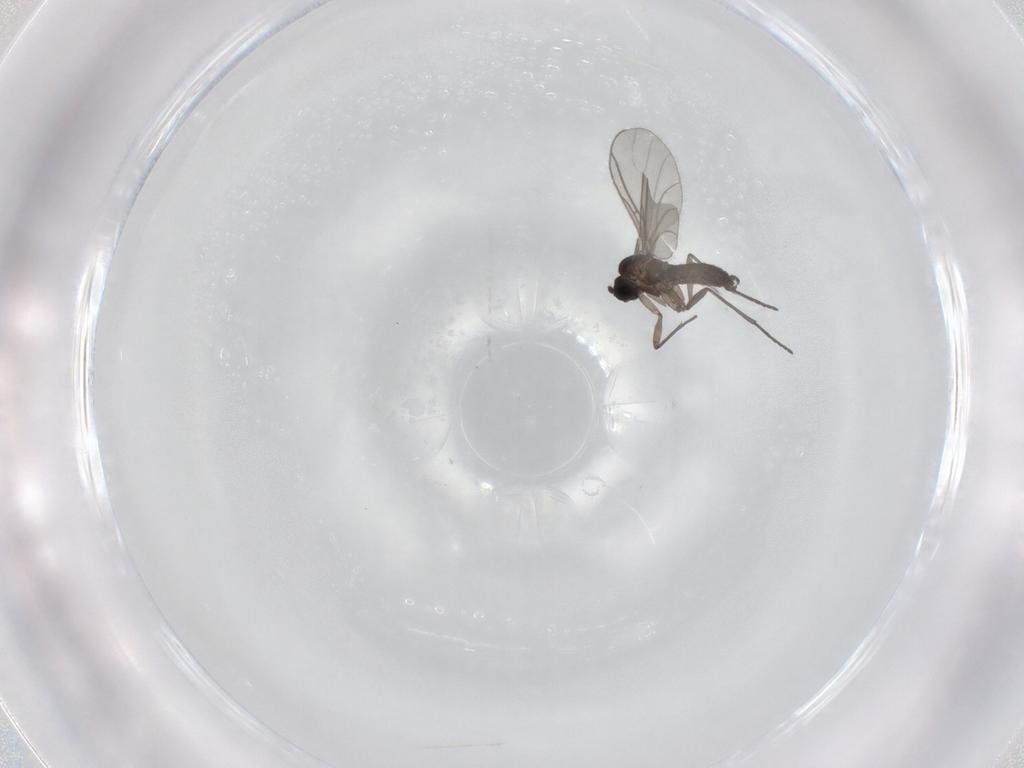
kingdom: Animalia
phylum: Arthropoda
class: Insecta
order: Diptera
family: Sciaridae
